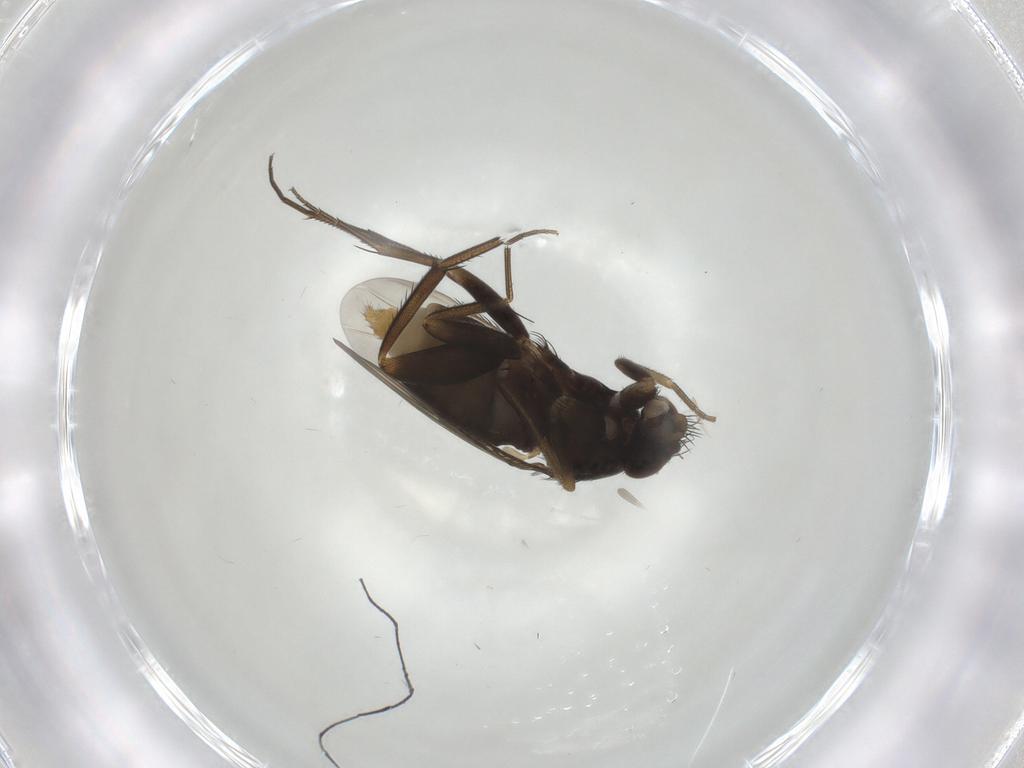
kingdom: Animalia
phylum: Arthropoda
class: Insecta
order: Diptera
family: Phoridae
